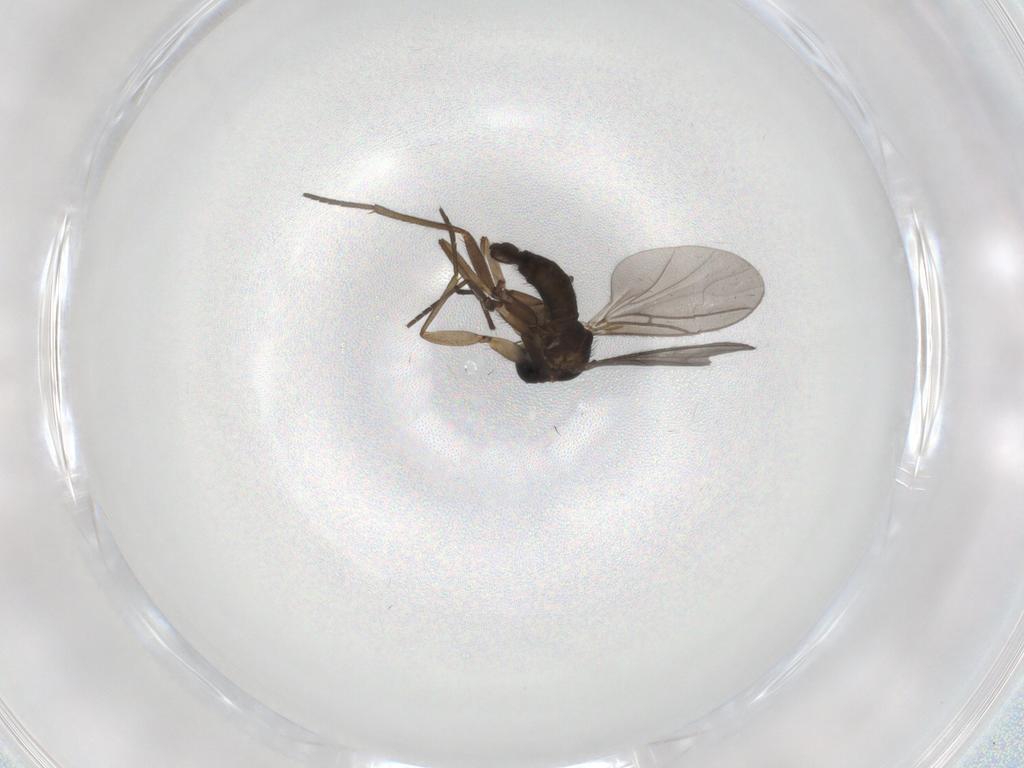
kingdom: Animalia
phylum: Arthropoda
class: Insecta
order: Diptera
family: Sciaridae
